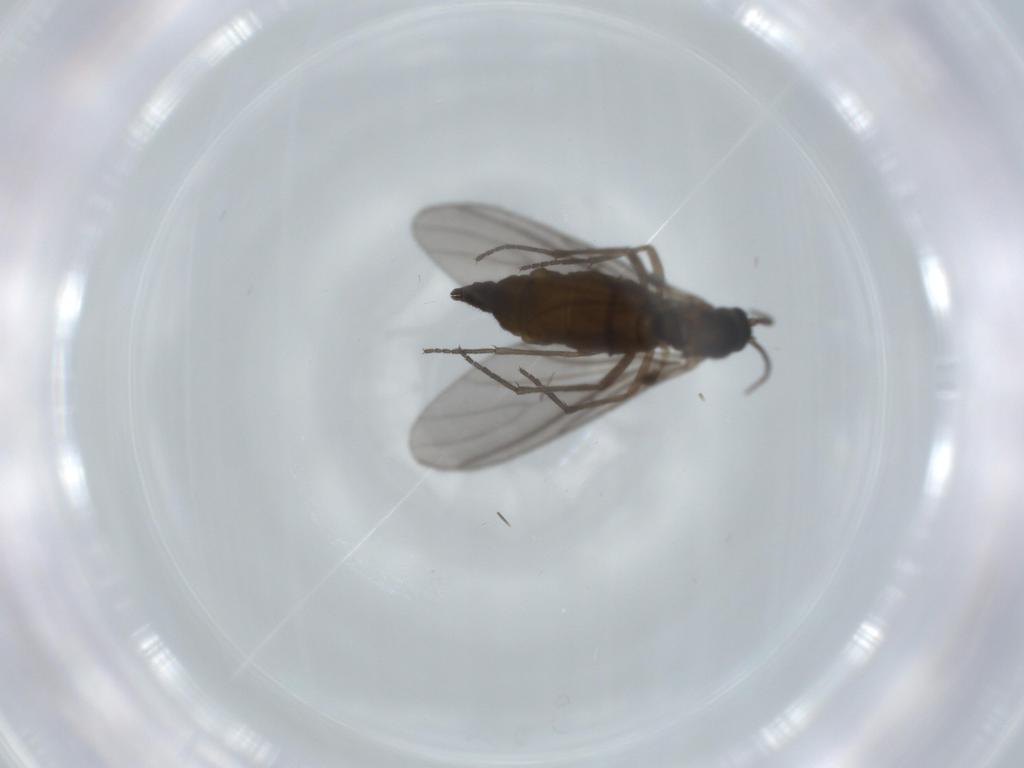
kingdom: Animalia
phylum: Arthropoda
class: Insecta
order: Diptera
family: Sciaridae
